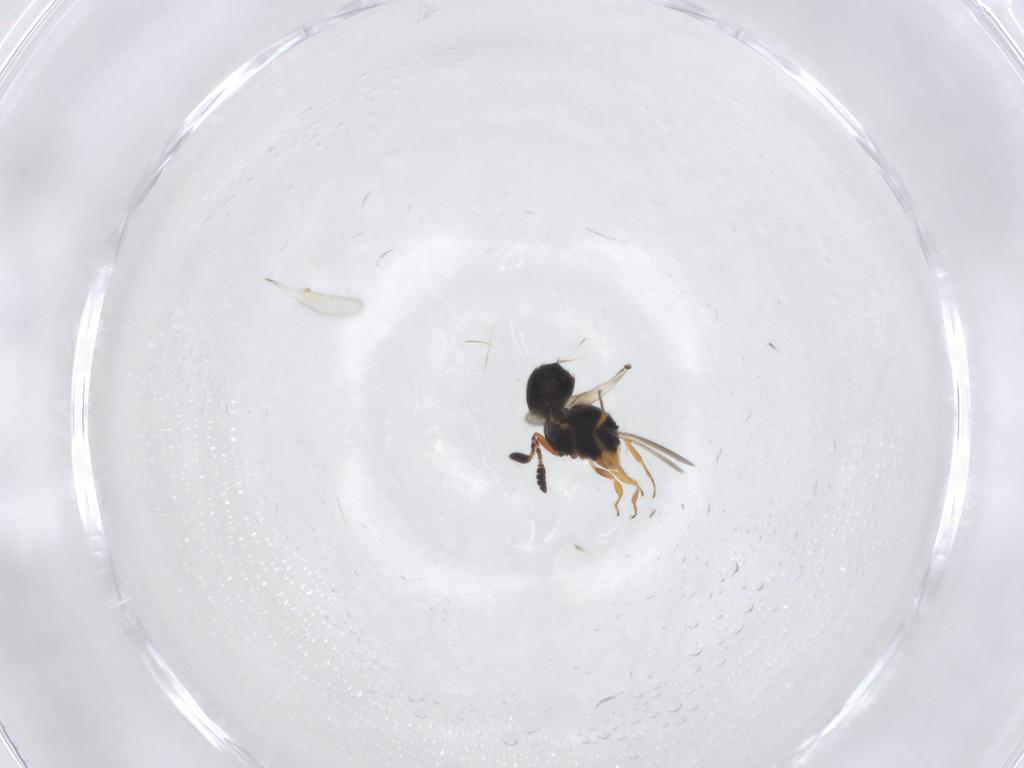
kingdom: Animalia
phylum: Arthropoda
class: Insecta
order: Hymenoptera
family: Scelionidae
